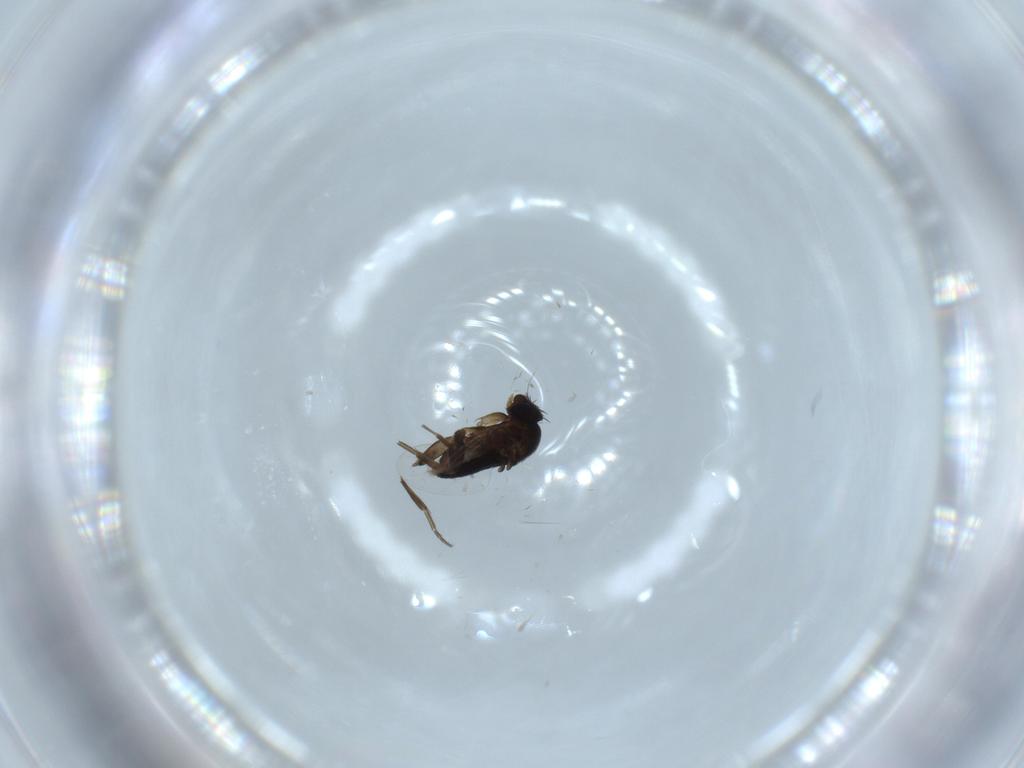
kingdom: Animalia
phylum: Arthropoda
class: Insecta
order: Diptera
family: Phoridae
